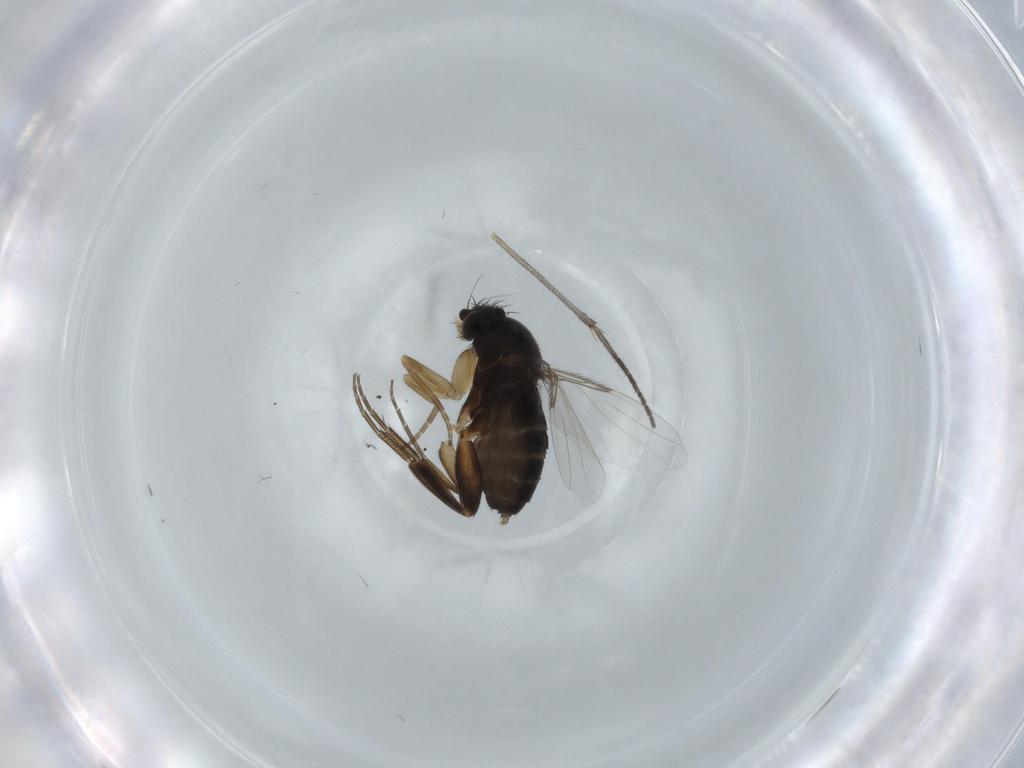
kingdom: Animalia
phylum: Arthropoda
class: Insecta
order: Diptera
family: Phoridae
